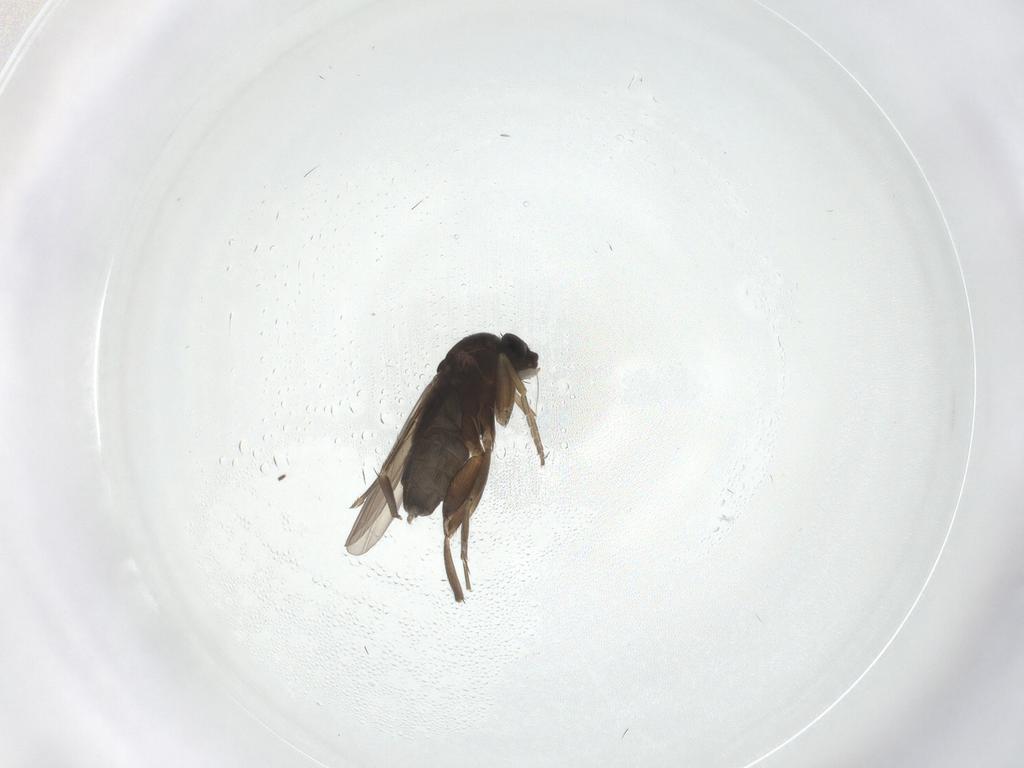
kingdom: Animalia
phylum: Arthropoda
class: Insecta
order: Diptera
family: Phoridae
